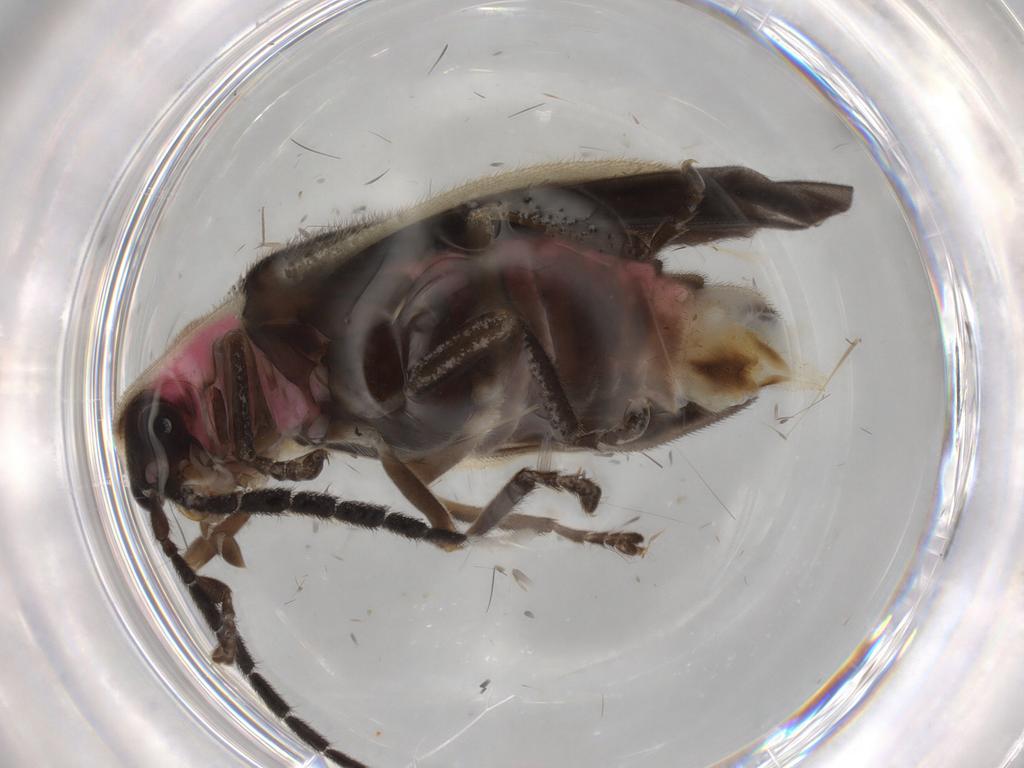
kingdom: Animalia
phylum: Arthropoda
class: Insecta
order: Coleoptera
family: Lampyridae
